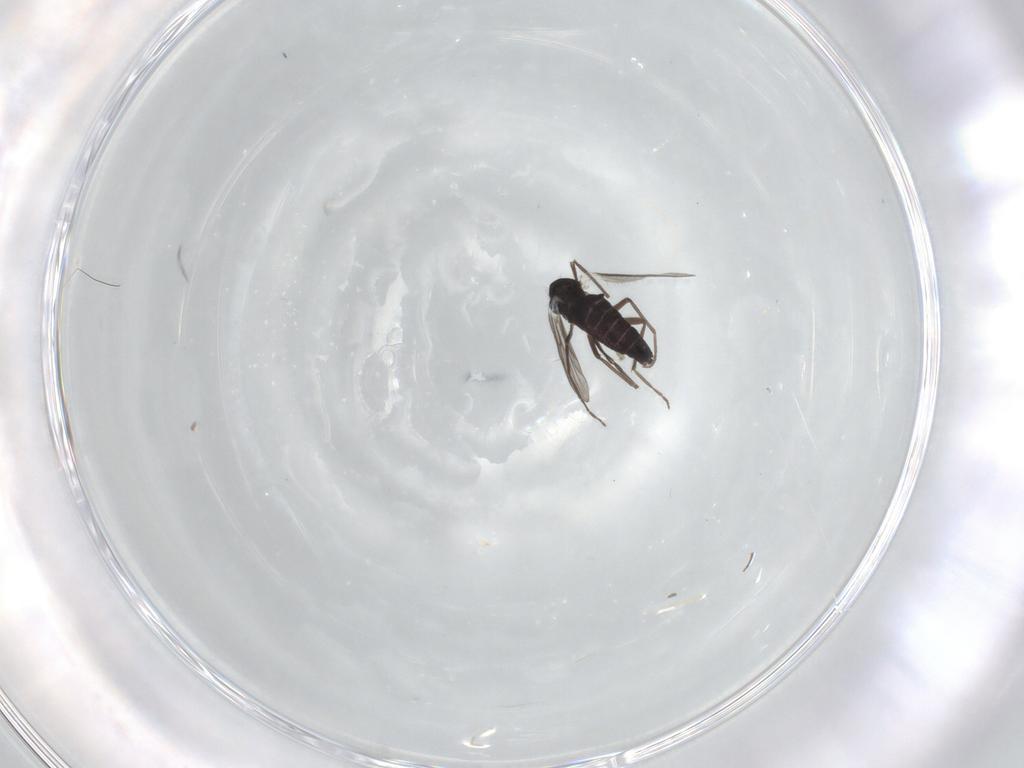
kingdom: Animalia
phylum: Arthropoda
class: Insecta
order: Diptera
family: Chironomidae
